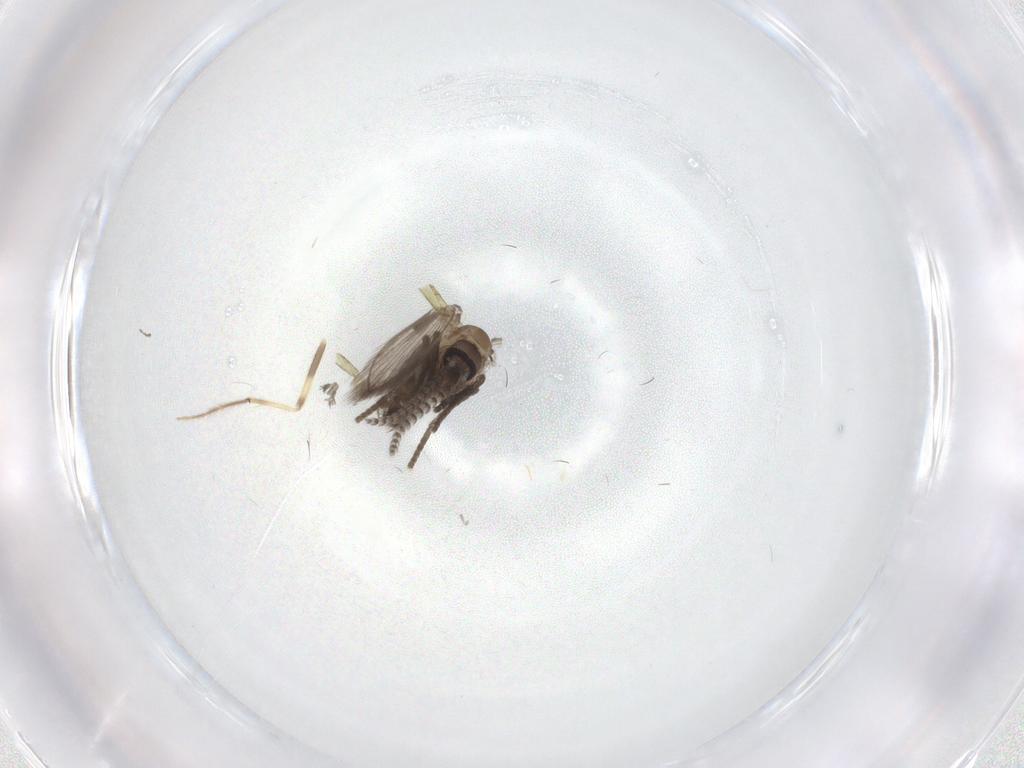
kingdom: Animalia
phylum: Arthropoda
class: Insecta
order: Diptera
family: Psychodidae
